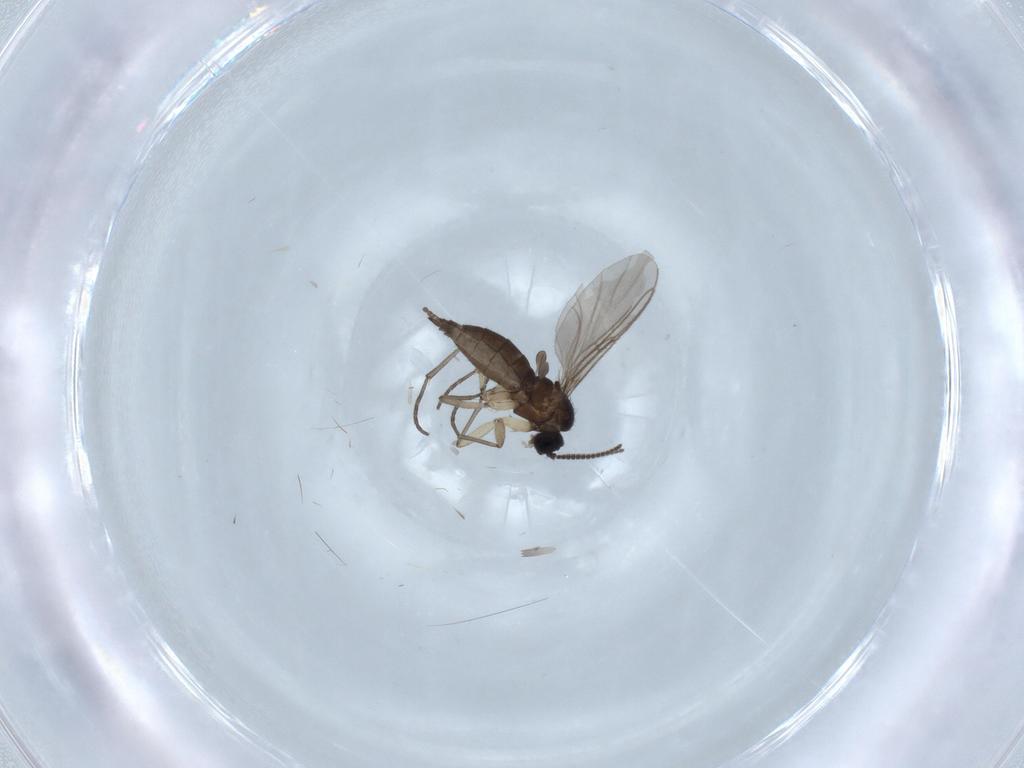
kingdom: Animalia
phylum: Arthropoda
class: Insecta
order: Diptera
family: Sciaridae
